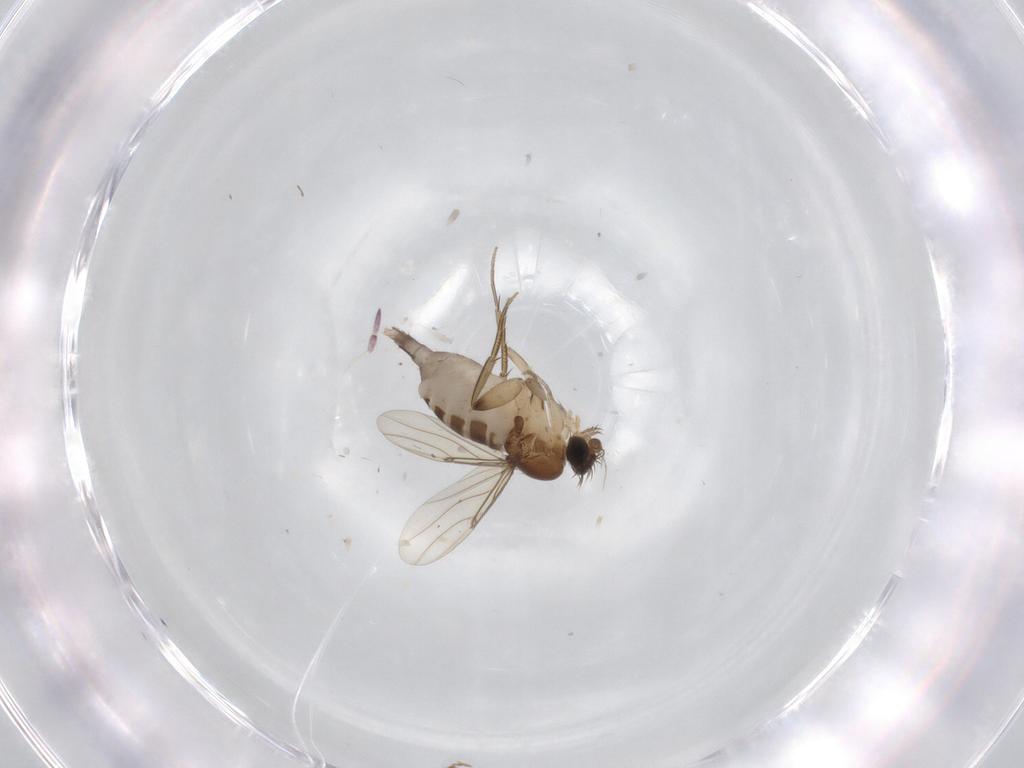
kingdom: Animalia
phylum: Arthropoda
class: Insecta
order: Diptera
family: Phoridae
